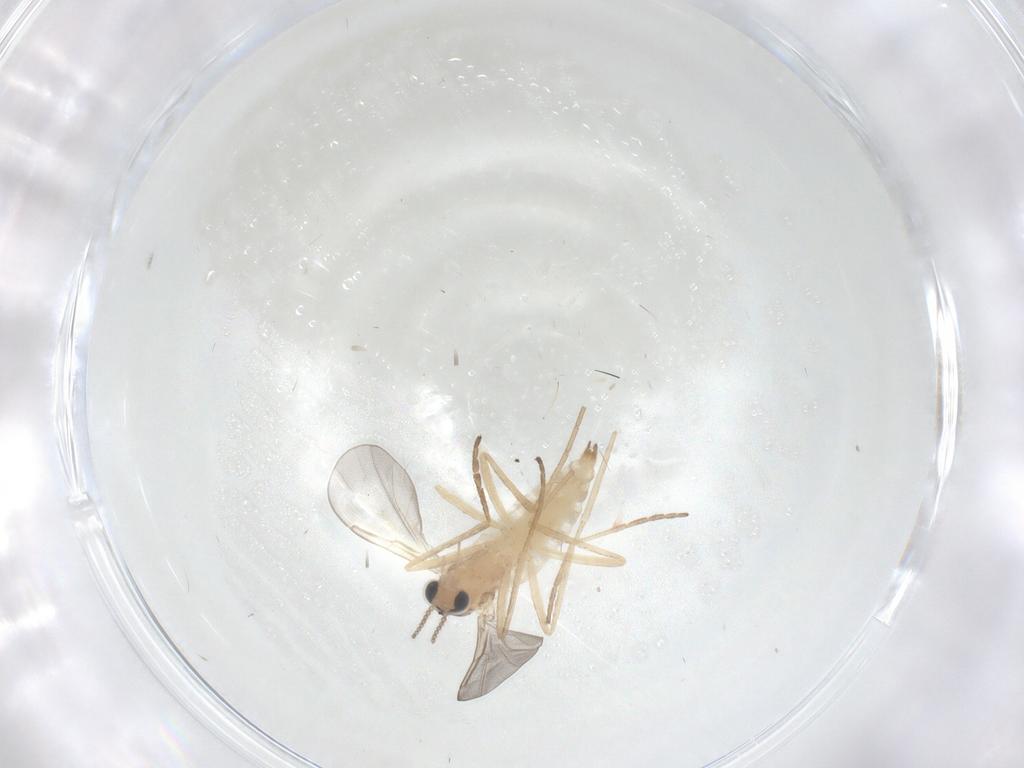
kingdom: Animalia
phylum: Arthropoda
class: Insecta
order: Diptera
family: Cecidomyiidae
